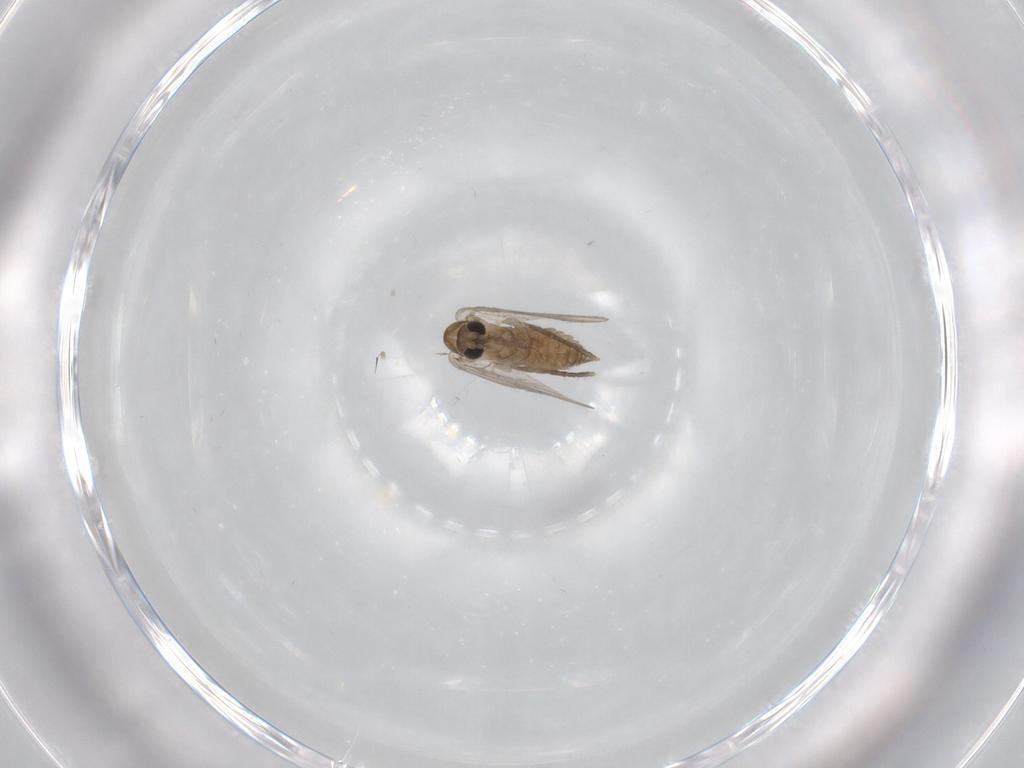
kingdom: Animalia
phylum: Arthropoda
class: Insecta
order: Diptera
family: Psychodidae
